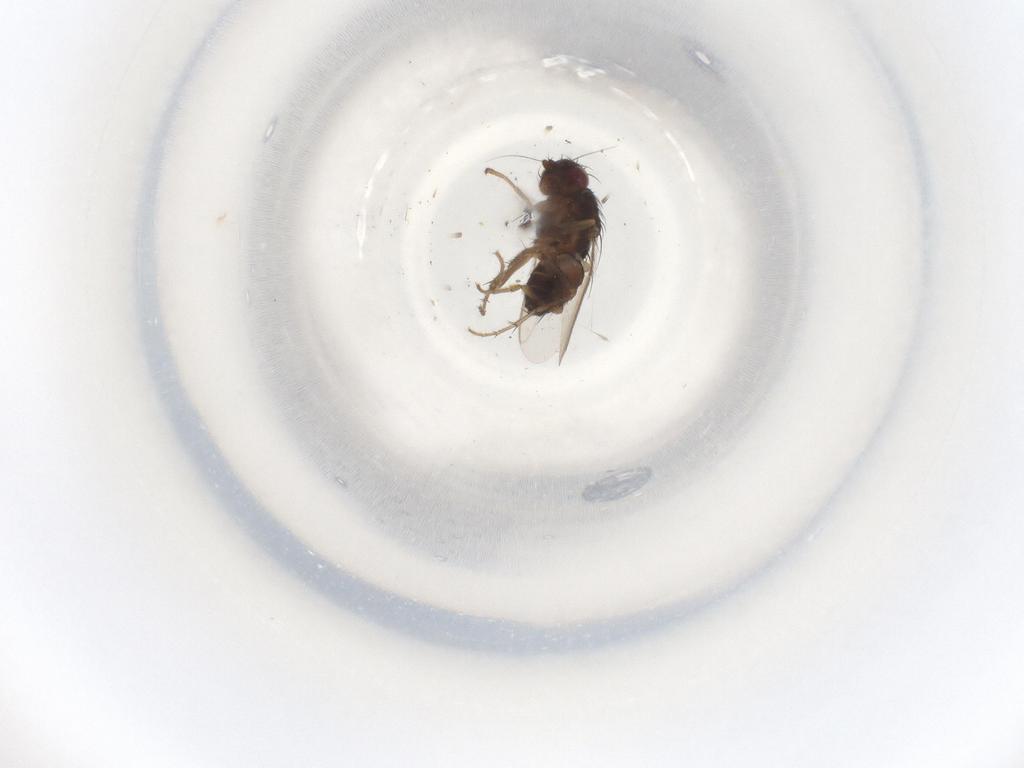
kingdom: Animalia
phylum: Arthropoda
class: Insecta
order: Diptera
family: Sphaeroceridae
